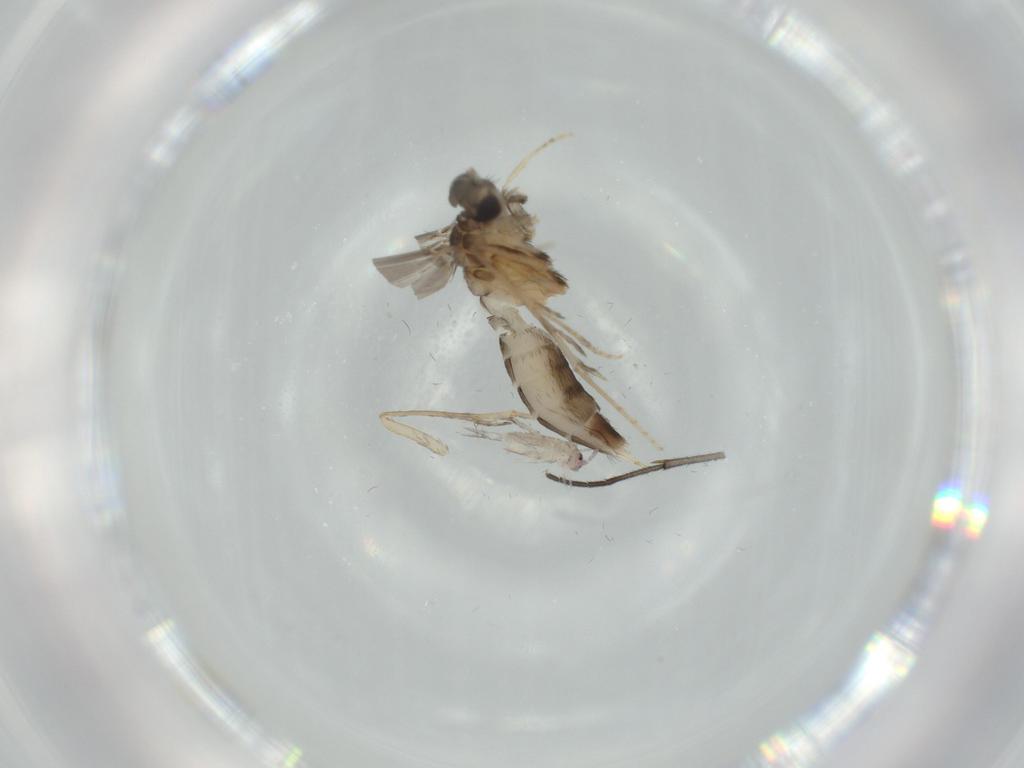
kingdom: Animalia
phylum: Arthropoda
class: Insecta
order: Trichoptera
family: Hydroptilidae
